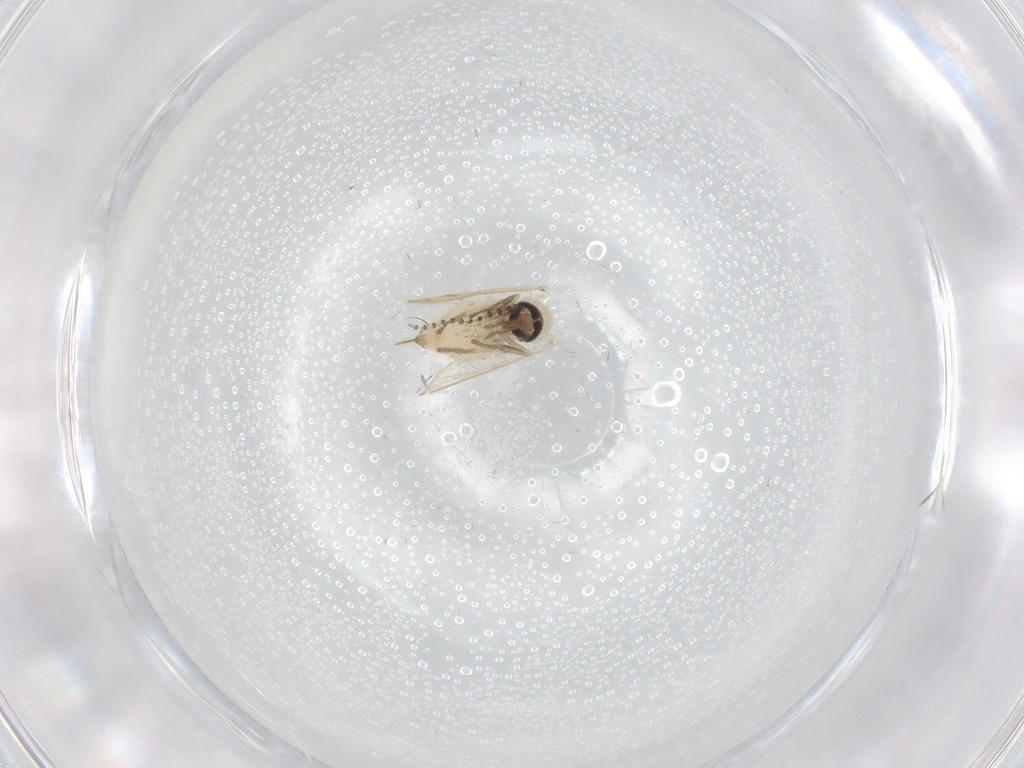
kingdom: Animalia
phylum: Arthropoda
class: Insecta
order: Diptera
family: Psychodidae
